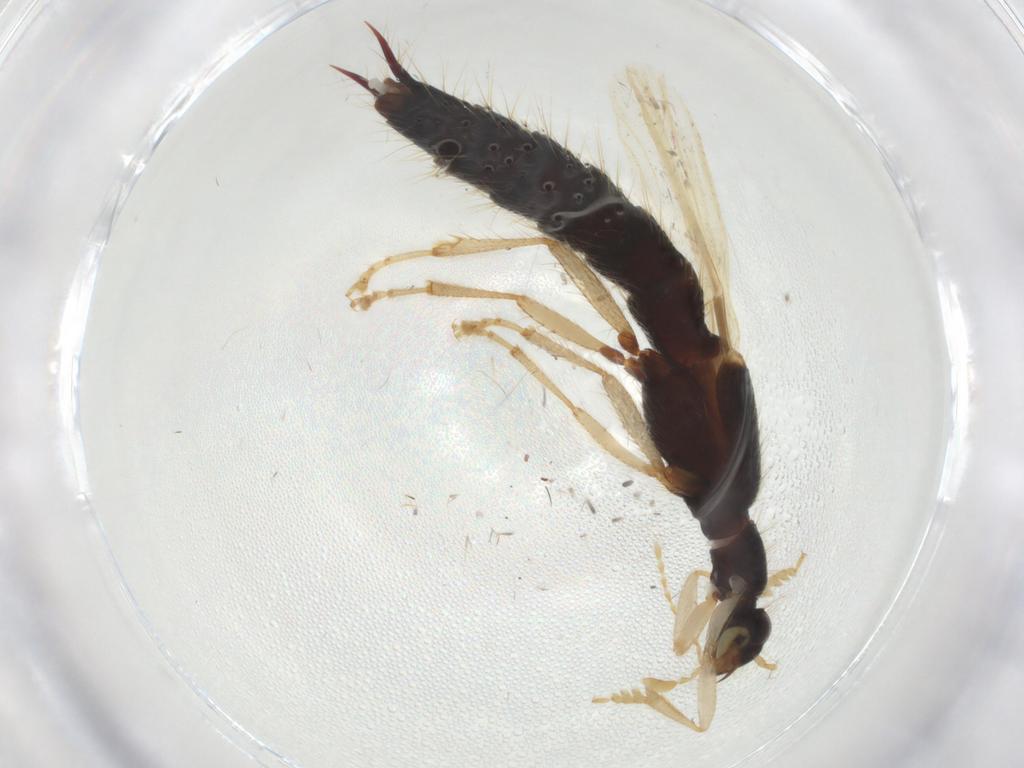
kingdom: Animalia
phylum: Arthropoda
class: Insecta
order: Coleoptera
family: Staphylinidae
